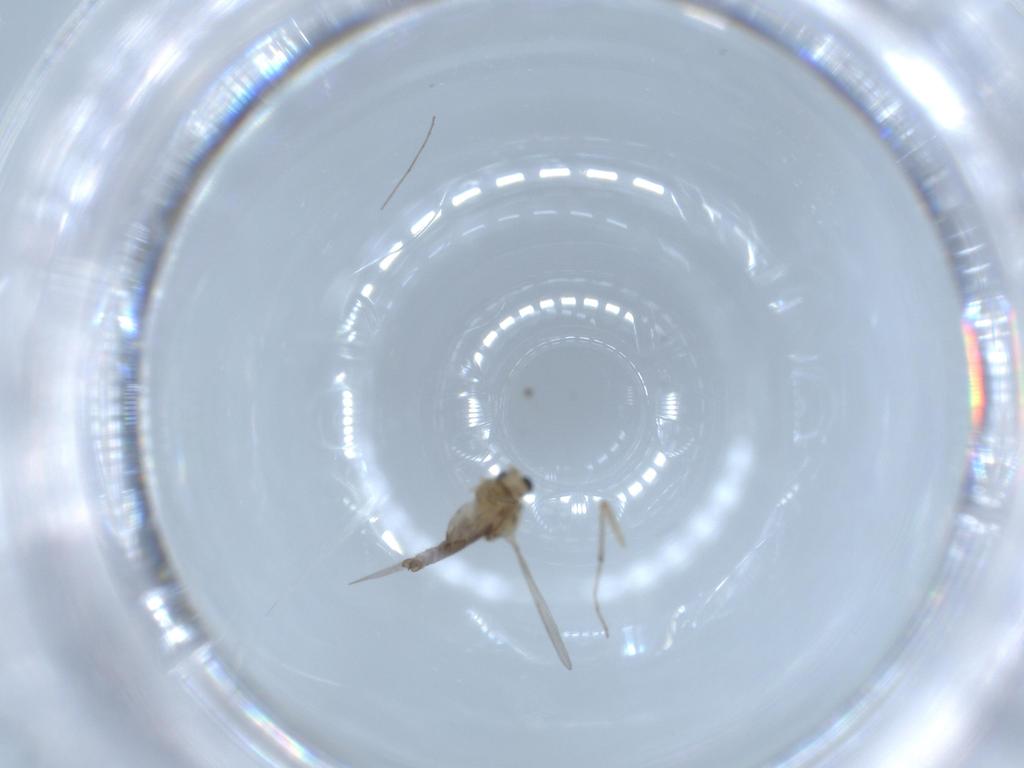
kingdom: Animalia
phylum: Arthropoda
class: Insecta
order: Diptera
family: Chironomidae
